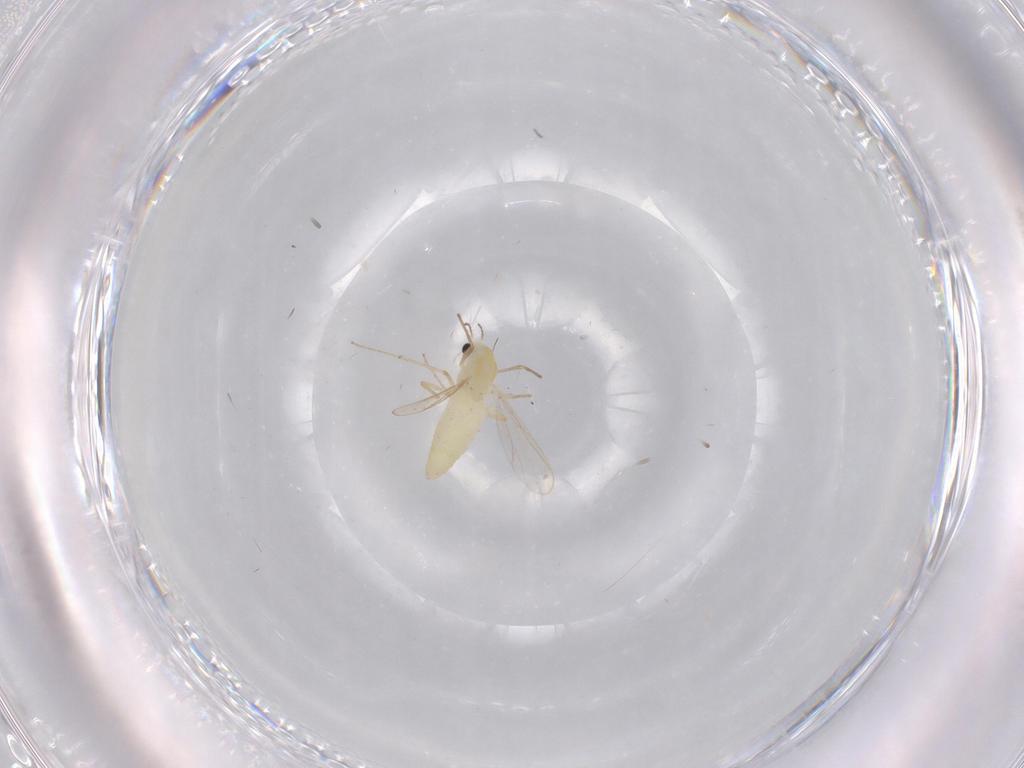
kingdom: Animalia
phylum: Arthropoda
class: Insecta
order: Diptera
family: Chironomidae
